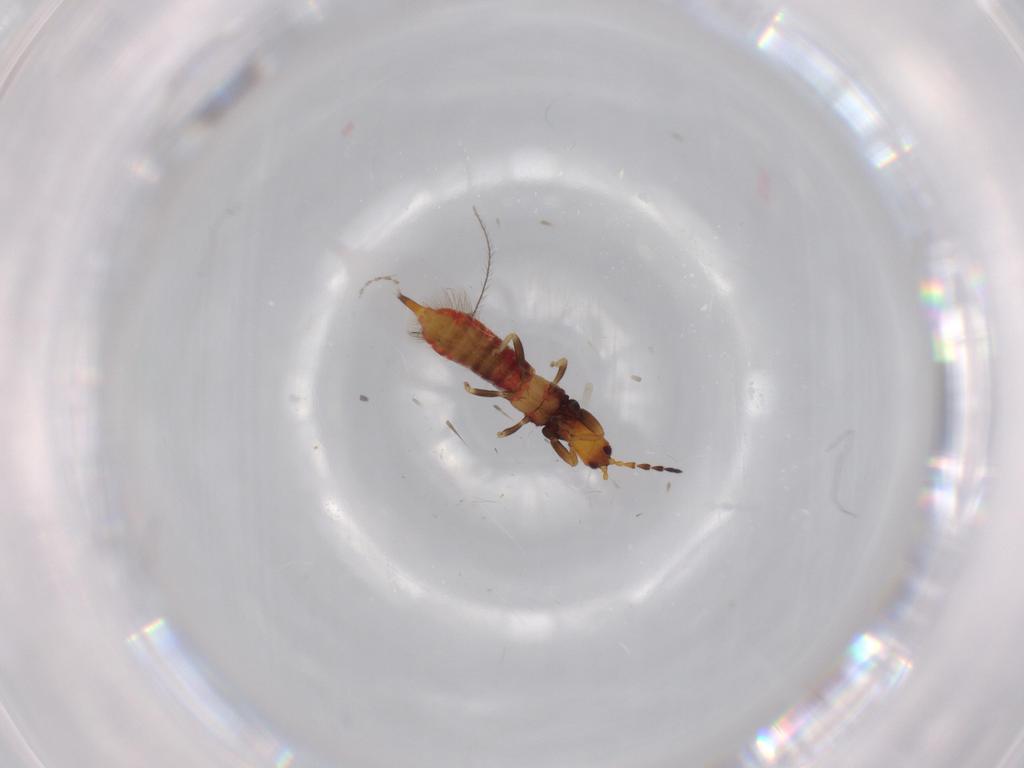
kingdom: Animalia
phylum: Arthropoda
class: Insecta
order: Thysanoptera
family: Phlaeothripidae
